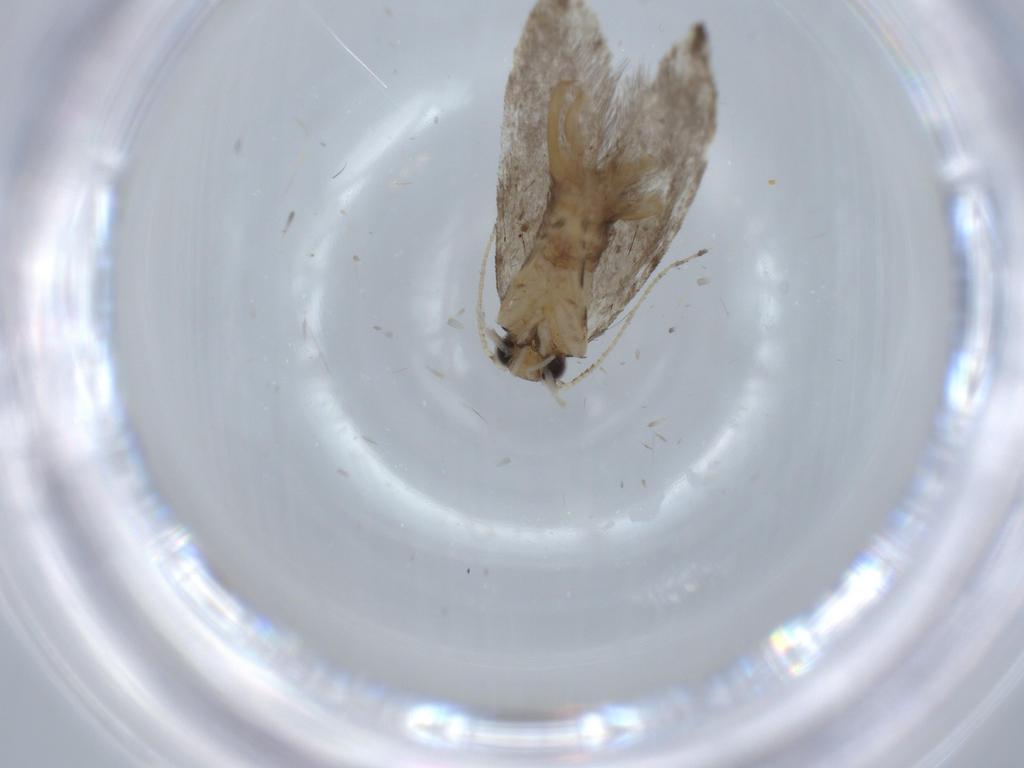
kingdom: Animalia
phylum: Arthropoda
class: Insecta
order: Lepidoptera
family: Tineidae
